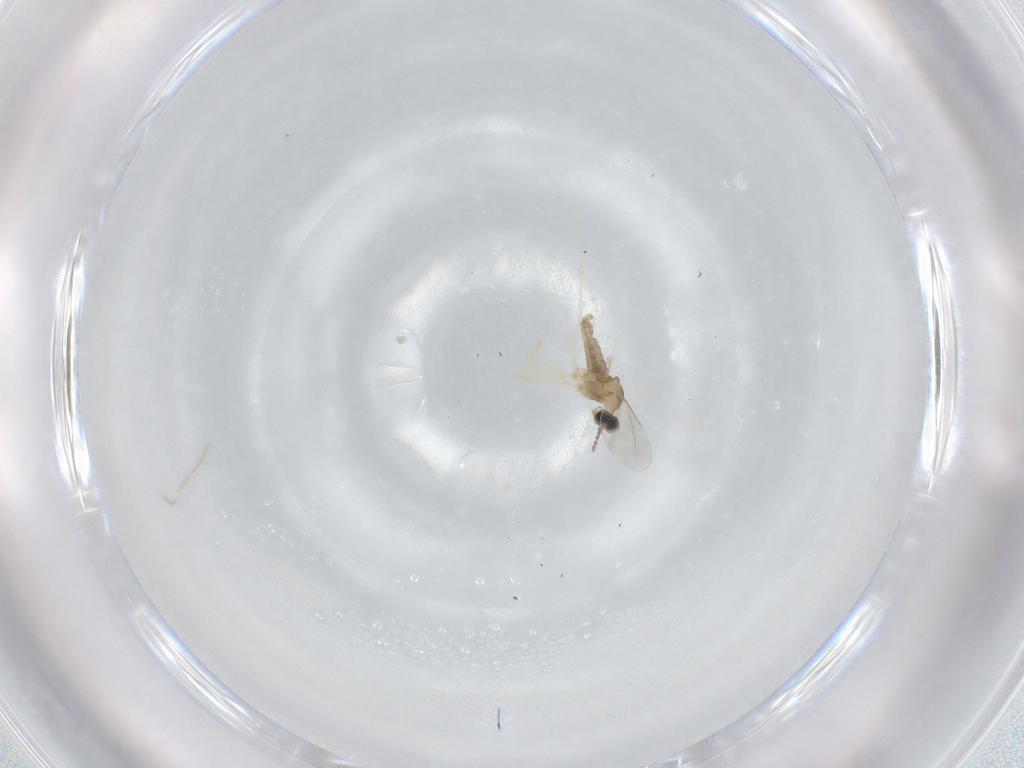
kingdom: Animalia
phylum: Arthropoda
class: Insecta
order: Diptera
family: Cecidomyiidae
